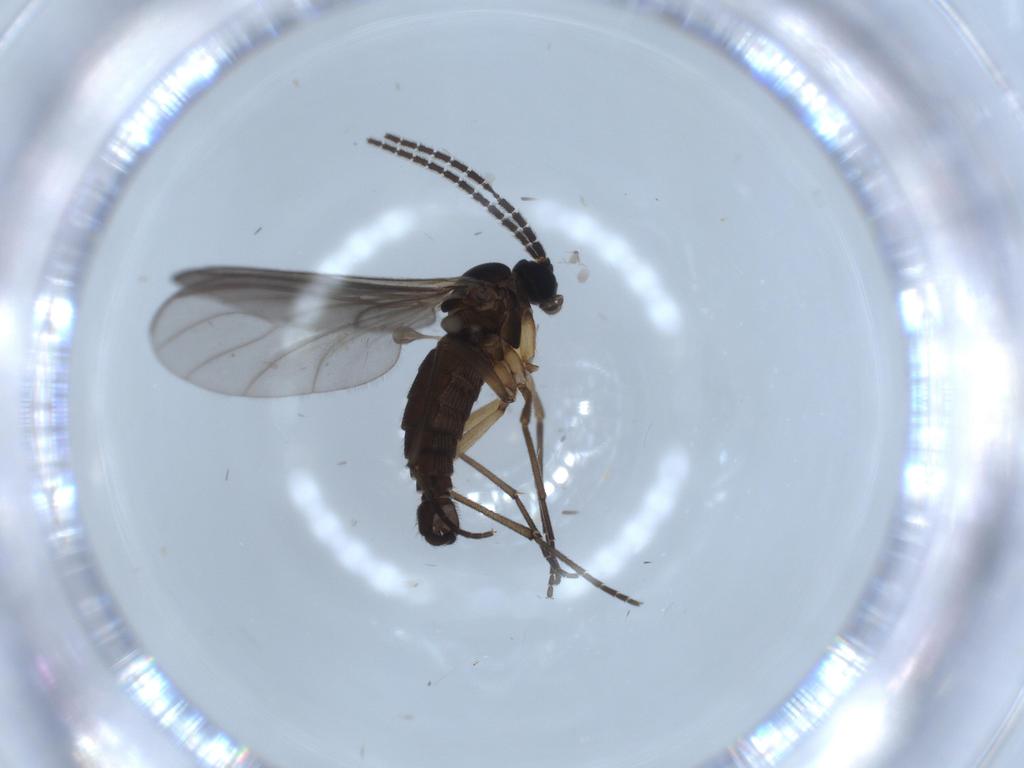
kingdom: Animalia
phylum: Arthropoda
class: Insecta
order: Diptera
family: Sciaridae
